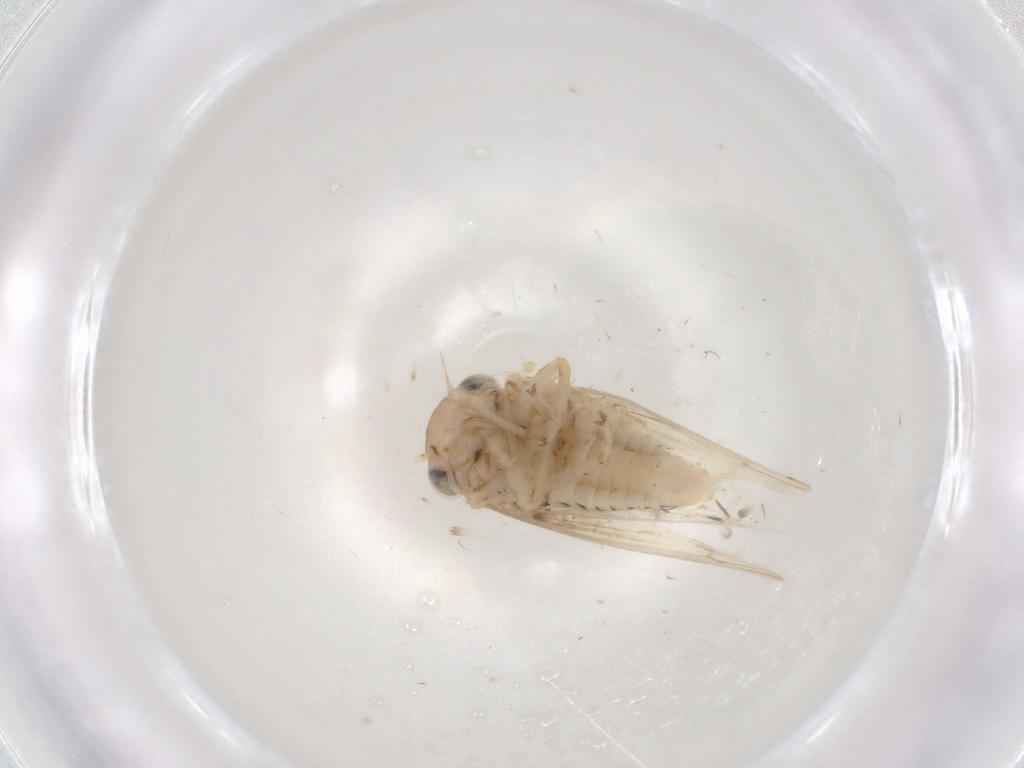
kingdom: Animalia
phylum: Arthropoda
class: Insecta
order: Hemiptera
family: Cicadellidae
